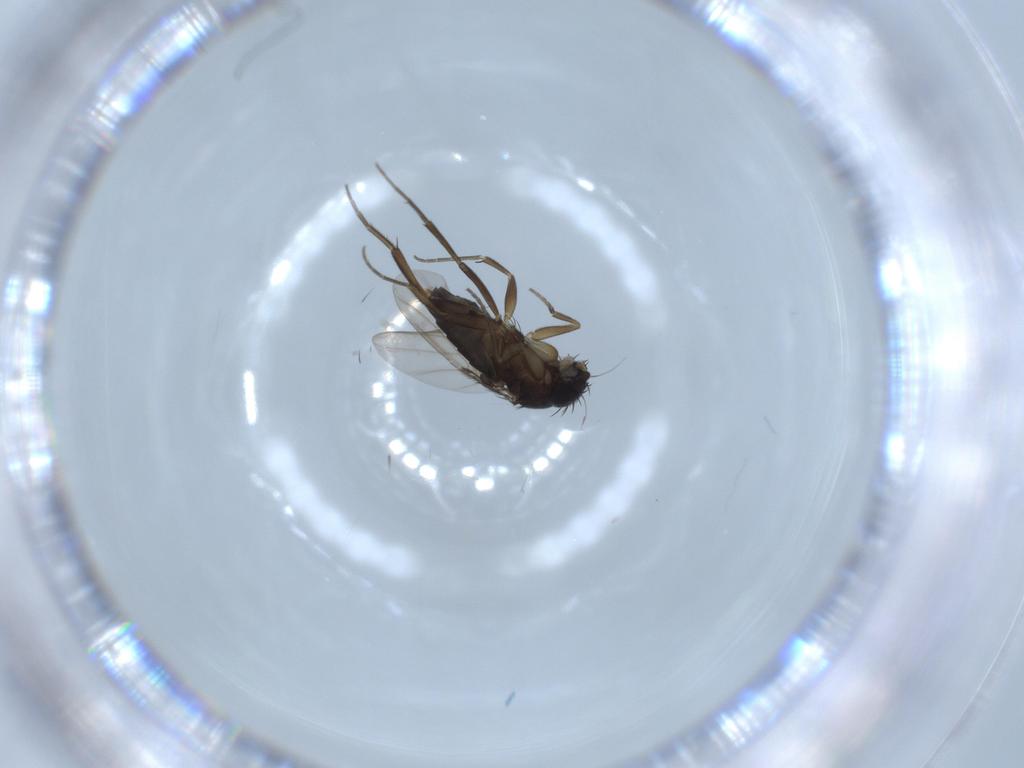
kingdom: Animalia
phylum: Arthropoda
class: Insecta
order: Diptera
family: Phoridae
